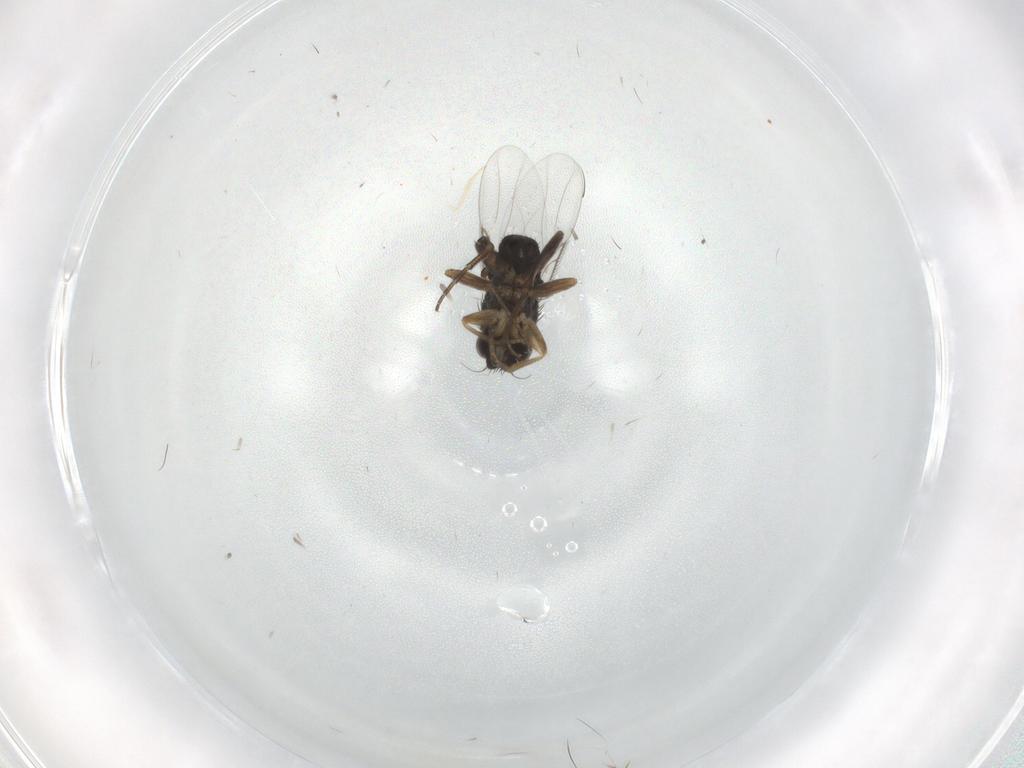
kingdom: Animalia
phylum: Arthropoda
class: Insecta
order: Diptera
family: Phoridae
